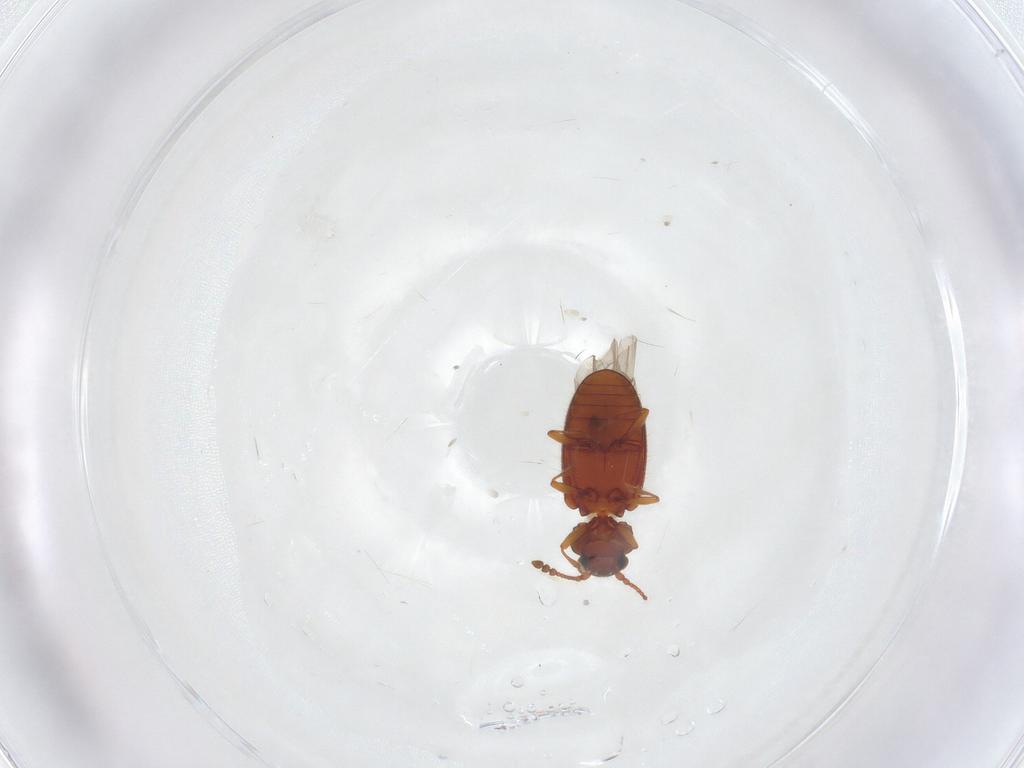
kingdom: Animalia
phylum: Arthropoda
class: Insecta
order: Coleoptera
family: Cryptophagidae
